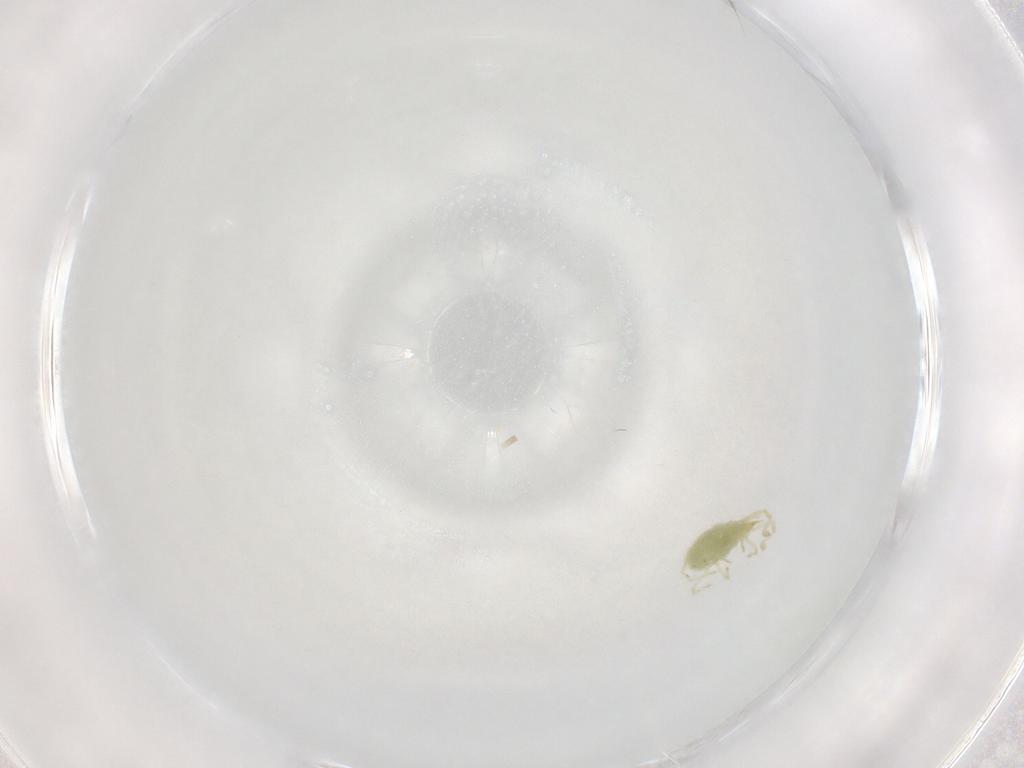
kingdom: Animalia
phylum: Arthropoda
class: Arachnida
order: Trombidiformes
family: Erythraeidae
